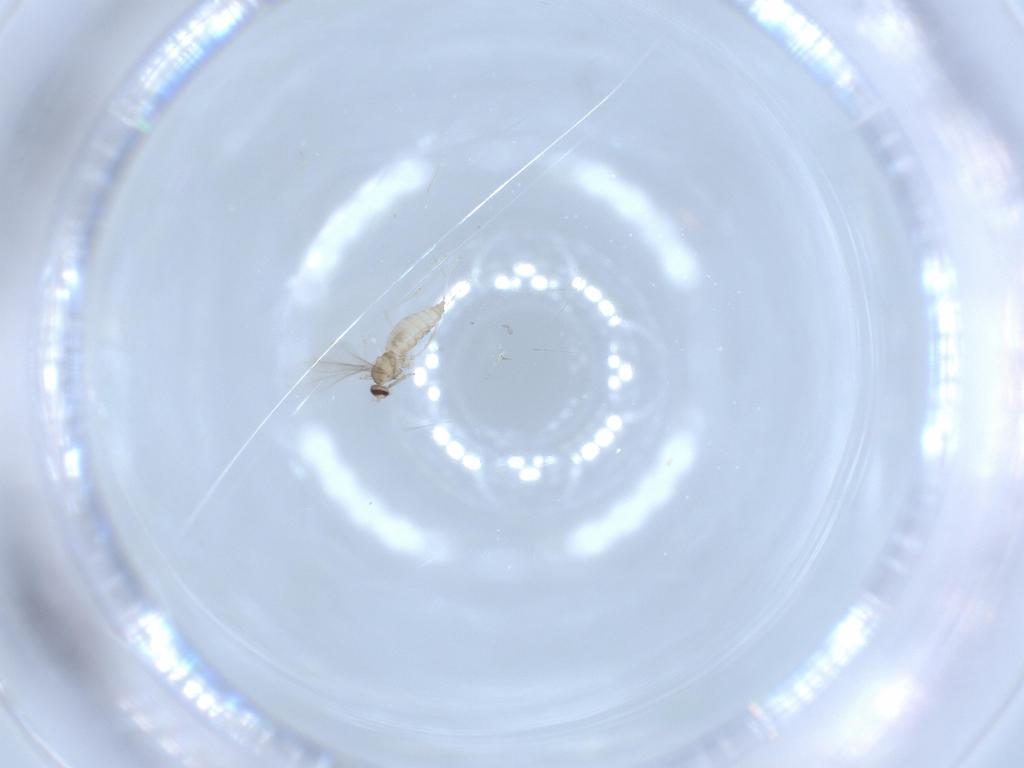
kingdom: Animalia
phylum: Arthropoda
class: Insecta
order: Diptera
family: Cecidomyiidae
